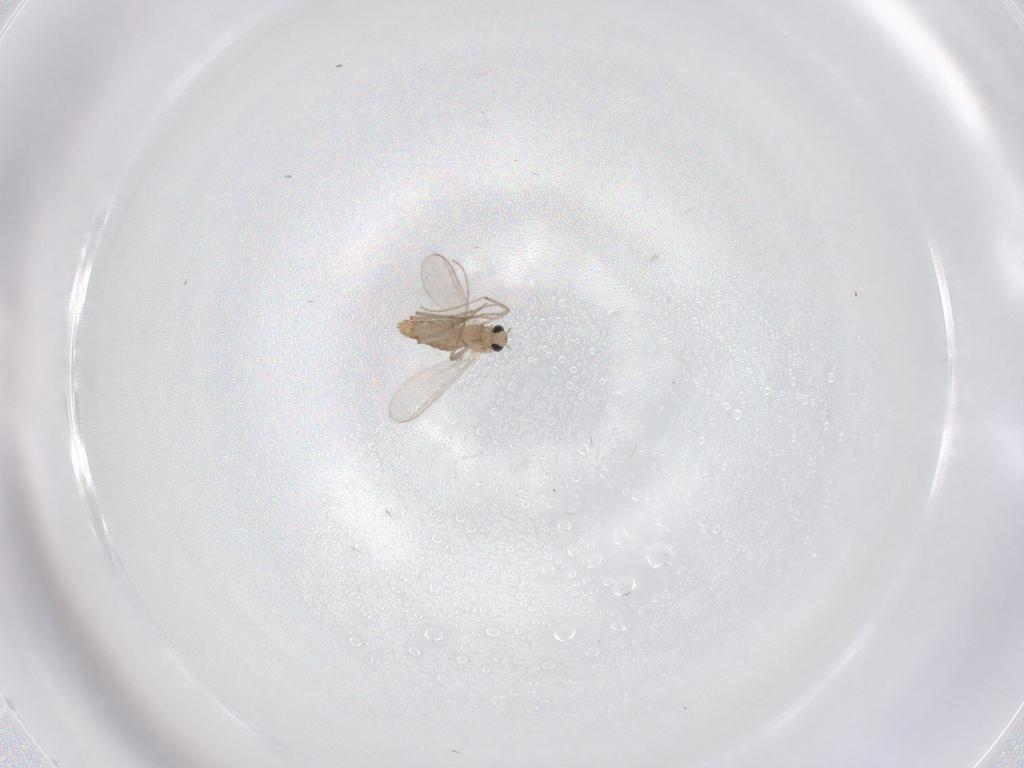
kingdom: Animalia
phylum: Arthropoda
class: Insecta
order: Diptera
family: Chironomidae
